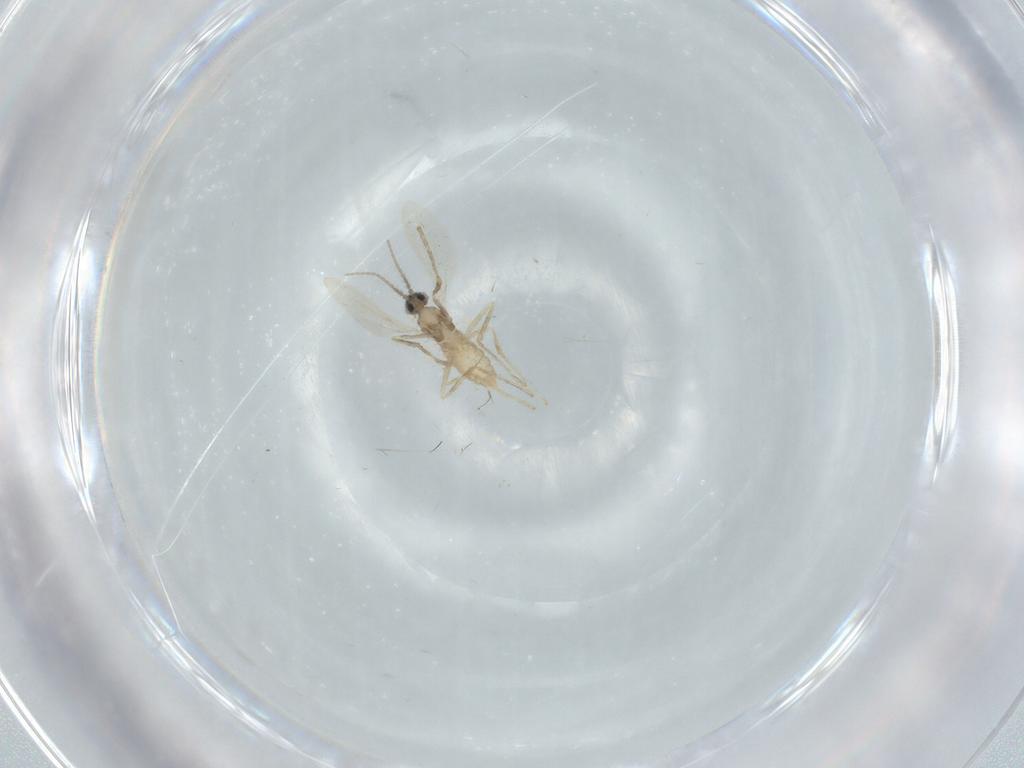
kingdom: Animalia
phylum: Arthropoda
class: Insecta
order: Diptera
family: Cecidomyiidae
